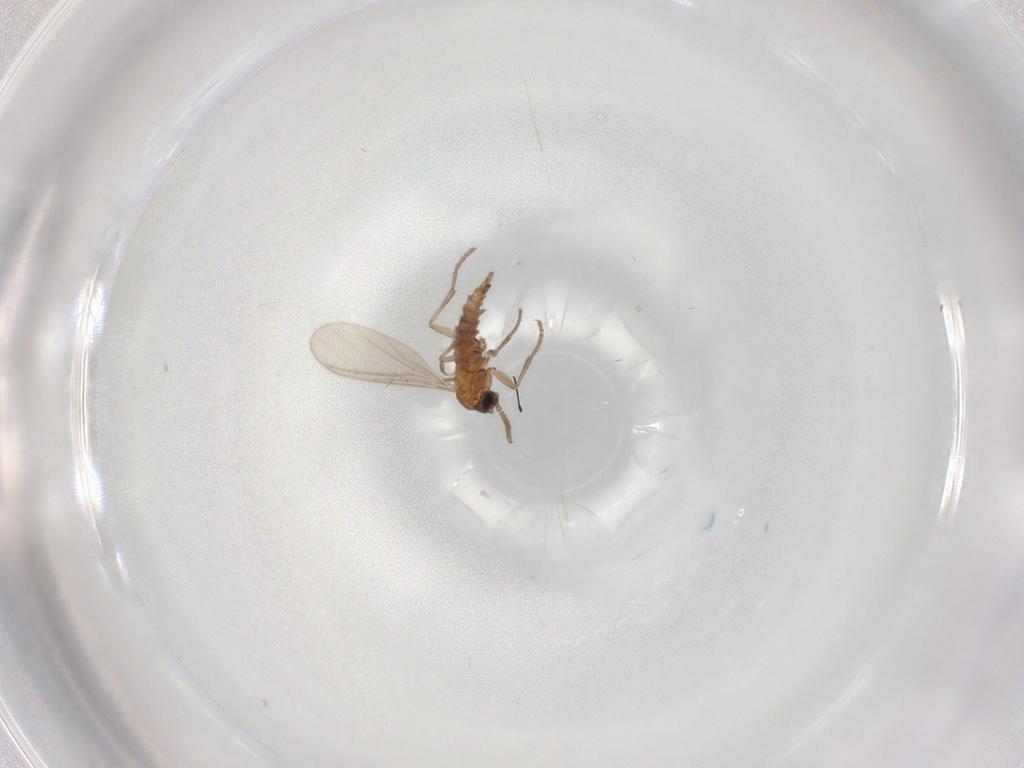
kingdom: Animalia
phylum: Arthropoda
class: Insecta
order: Diptera
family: Sciaridae
